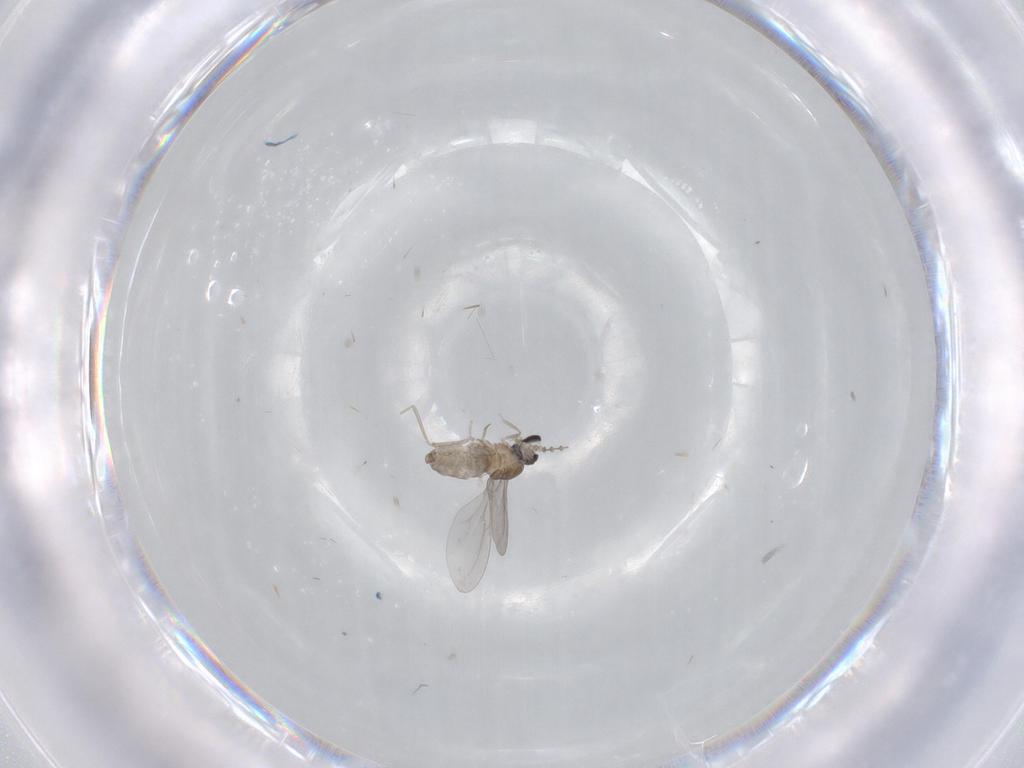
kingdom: Animalia
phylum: Arthropoda
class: Insecta
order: Diptera
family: Cecidomyiidae
